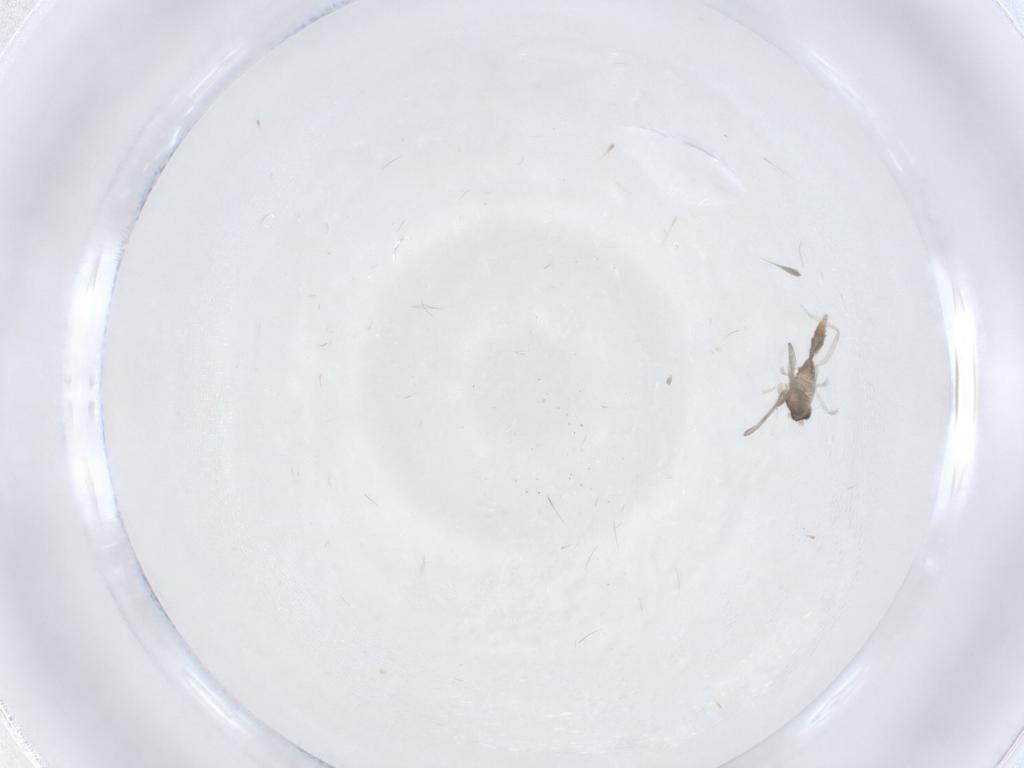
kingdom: Animalia
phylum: Arthropoda
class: Insecta
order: Diptera
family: Cecidomyiidae
